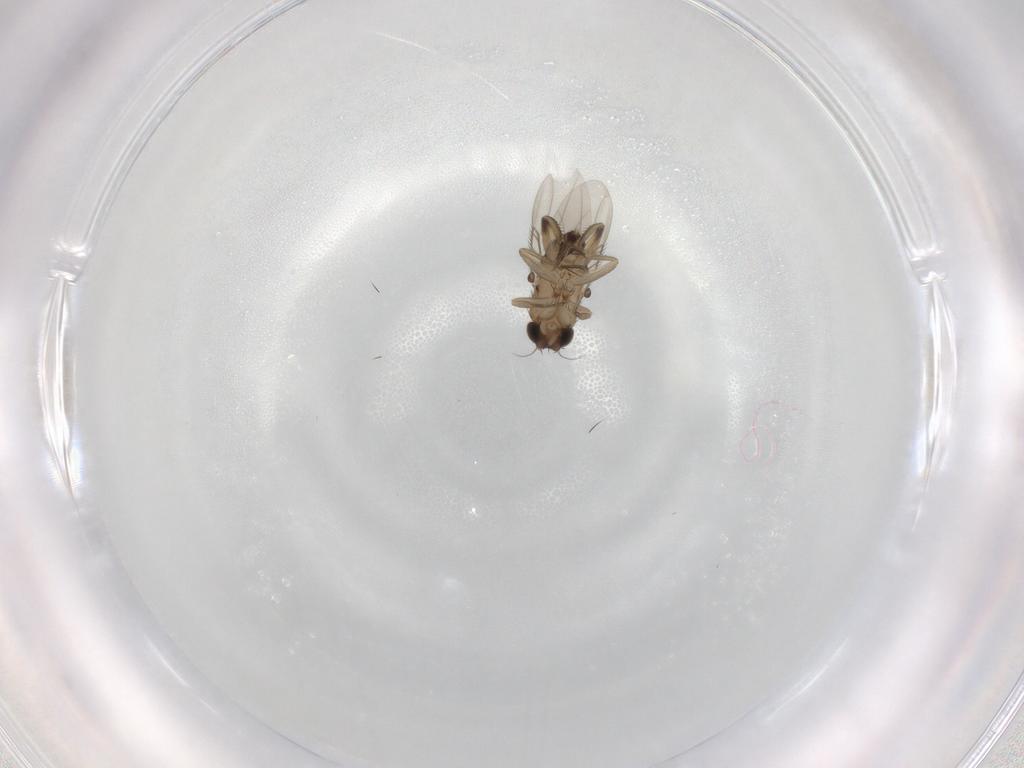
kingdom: Animalia
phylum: Arthropoda
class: Insecta
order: Diptera
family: Phoridae
